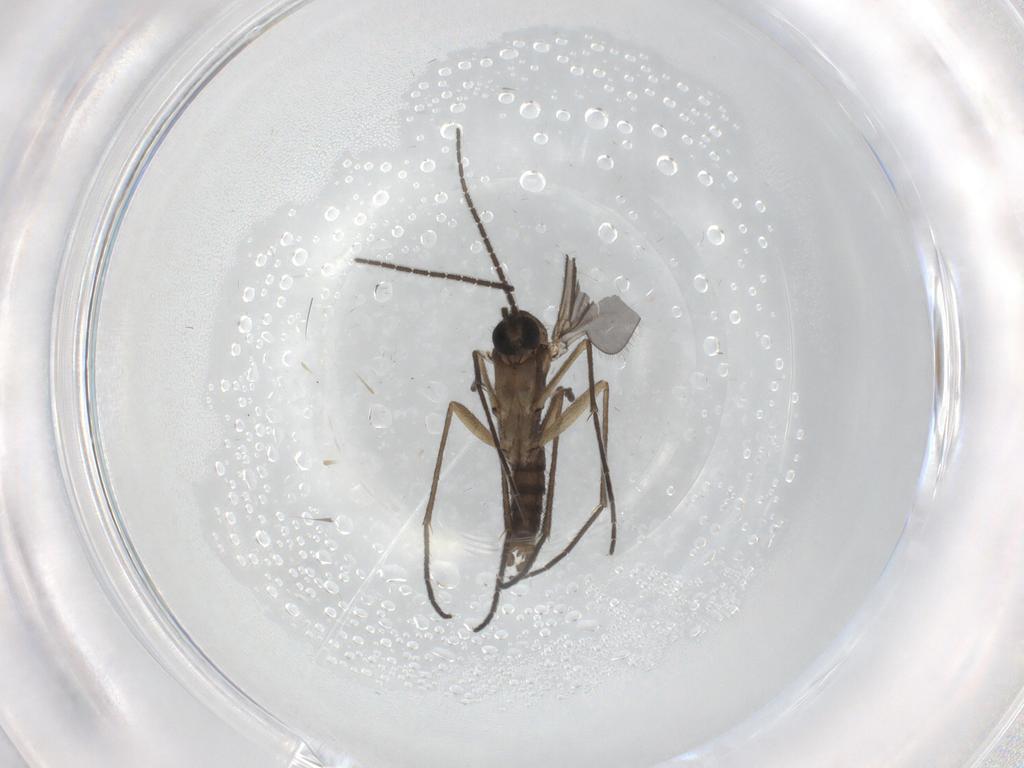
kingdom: Animalia
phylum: Arthropoda
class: Insecta
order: Diptera
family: Sciaridae
